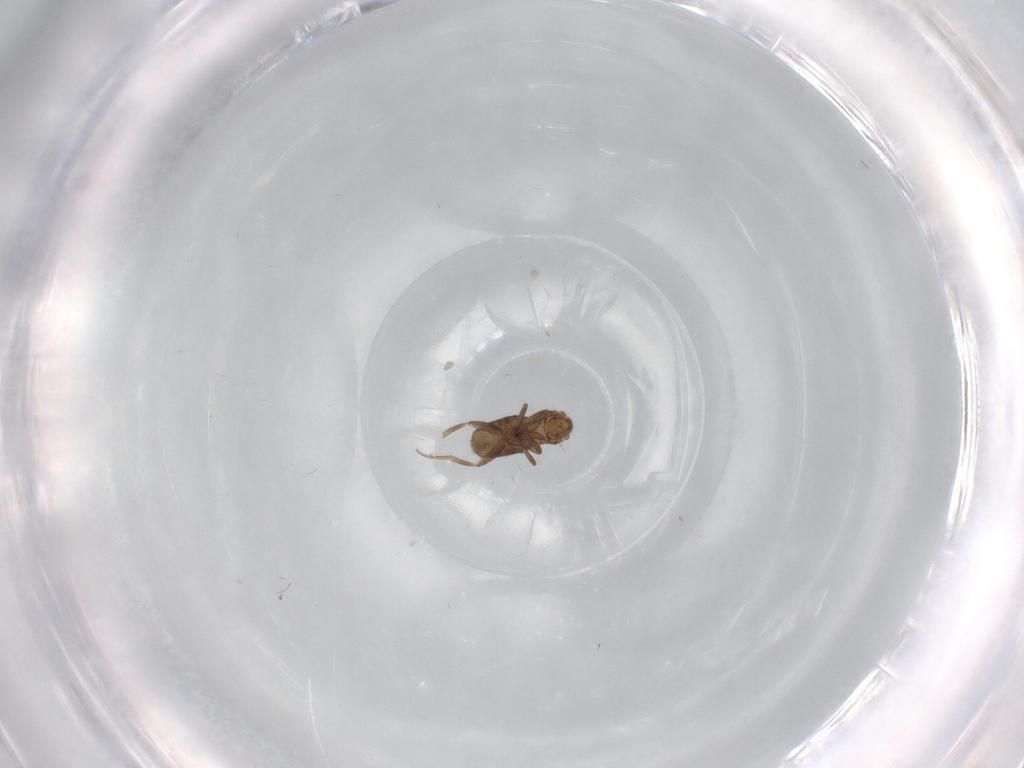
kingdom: Animalia
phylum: Arthropoda
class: Insecta
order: Diptera
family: Phoridae
